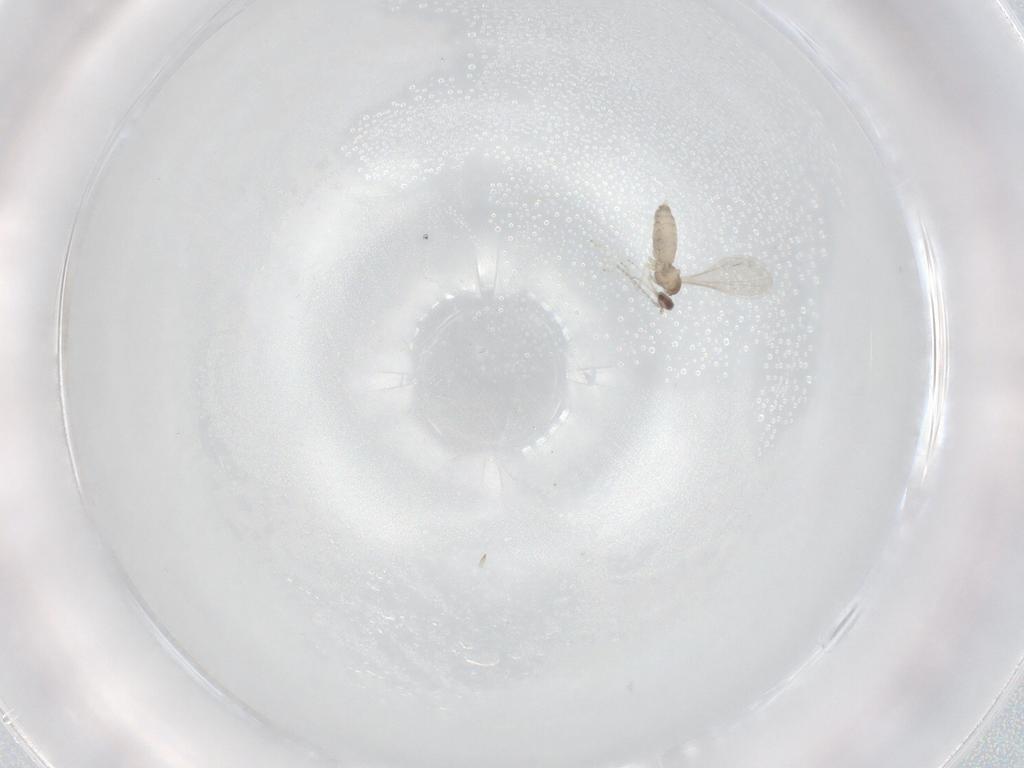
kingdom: Animalia
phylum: Arthropoda
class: Insecta
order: Diptera
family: Cecidomyiidae
